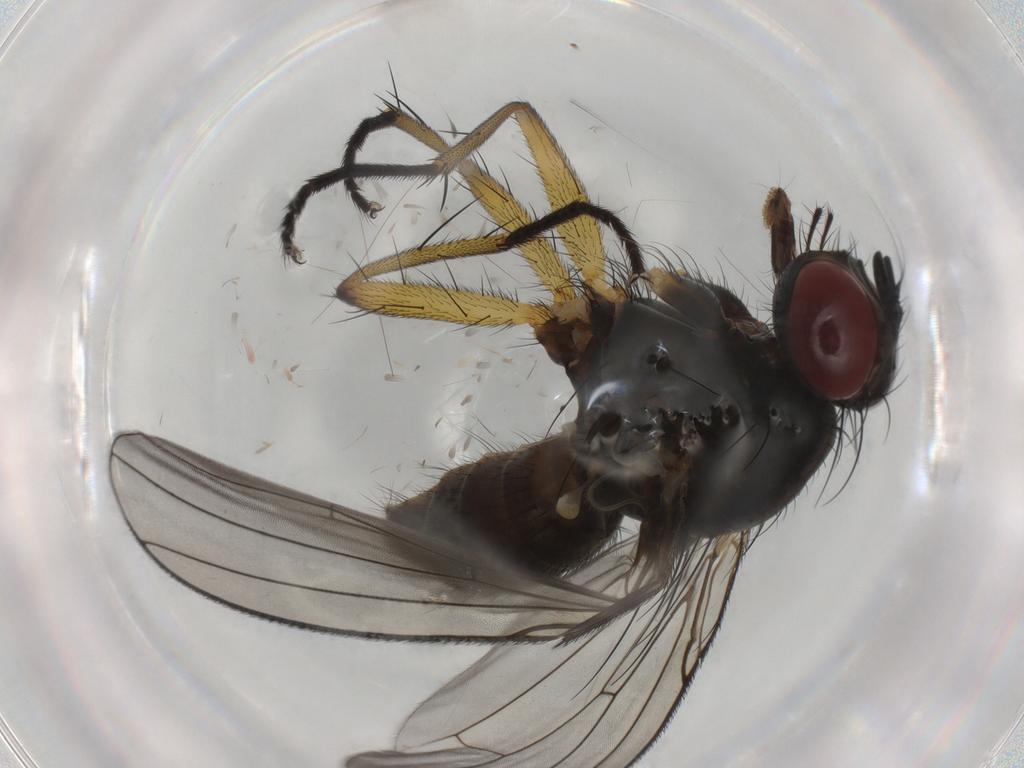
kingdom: Animalia
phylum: Arthropoda
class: Insecta
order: Diptera
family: Muscidae
